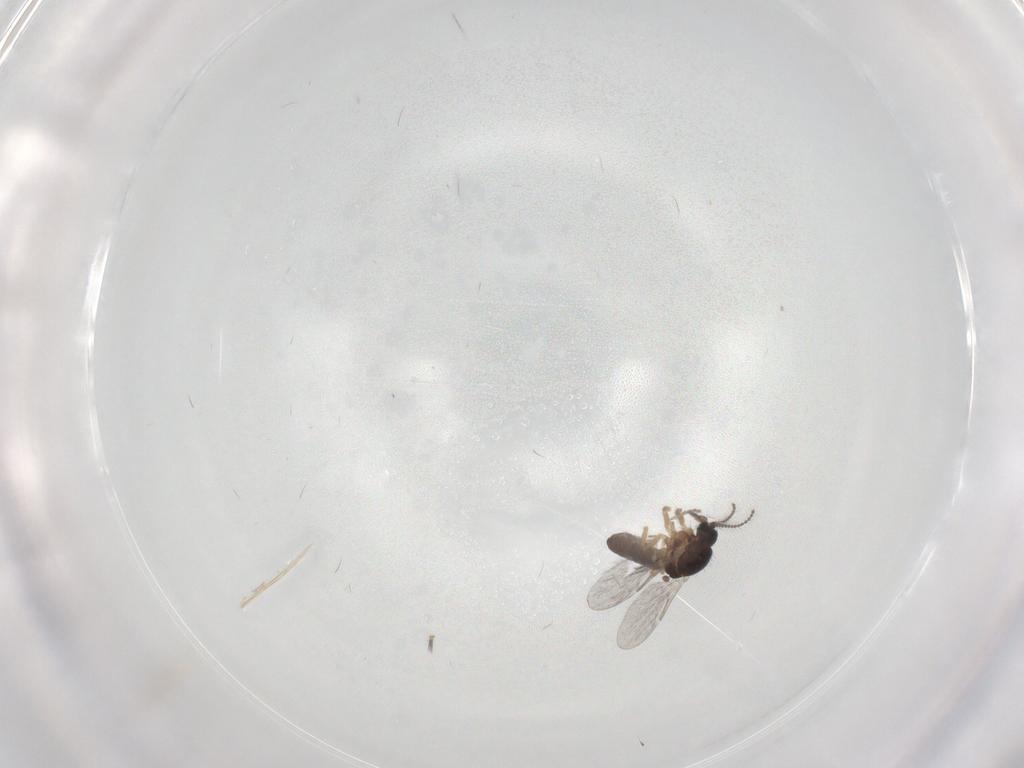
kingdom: Animalia
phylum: Arthropoda
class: Insecta
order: Diptera
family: Ceratopogonidae
